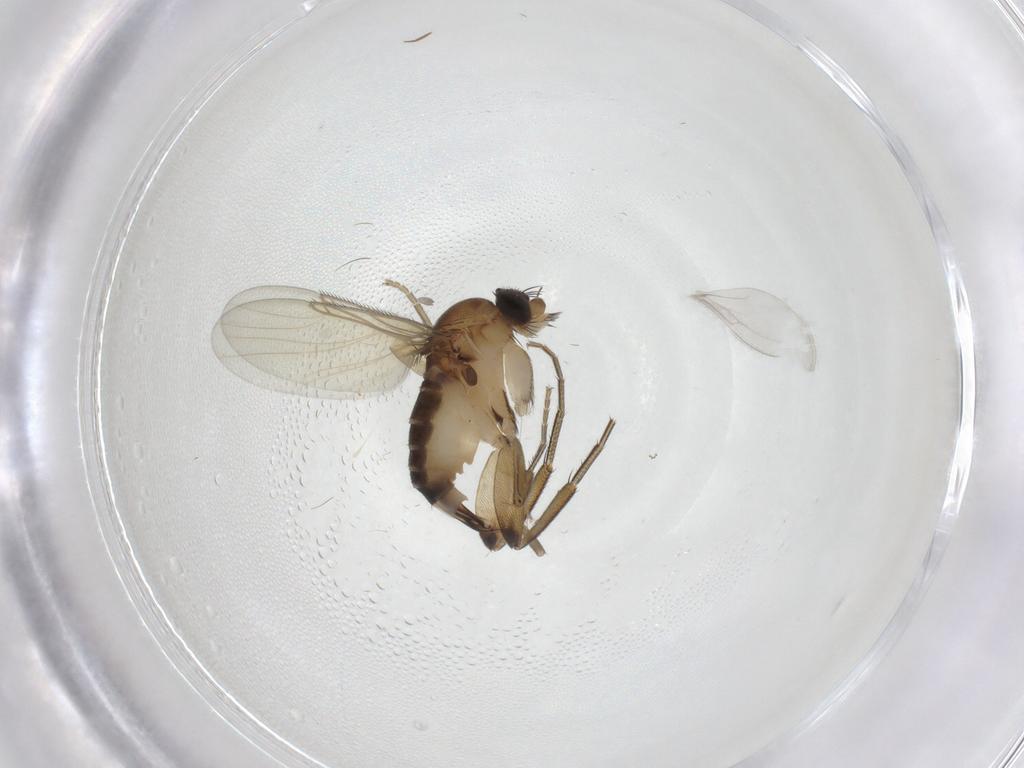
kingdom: Animalia
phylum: Arthropoda
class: Insecta
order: Diptera
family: Phoridae
